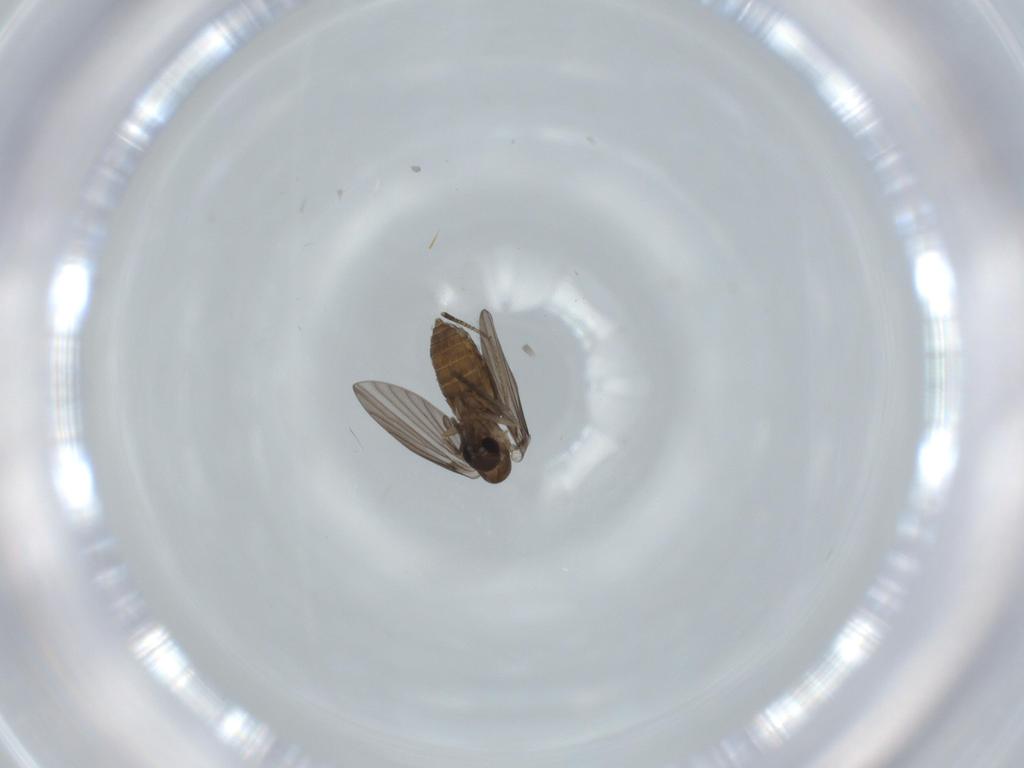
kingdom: Animalia
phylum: Arthropoda
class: Insecta
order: Diptera
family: Psychodidae
